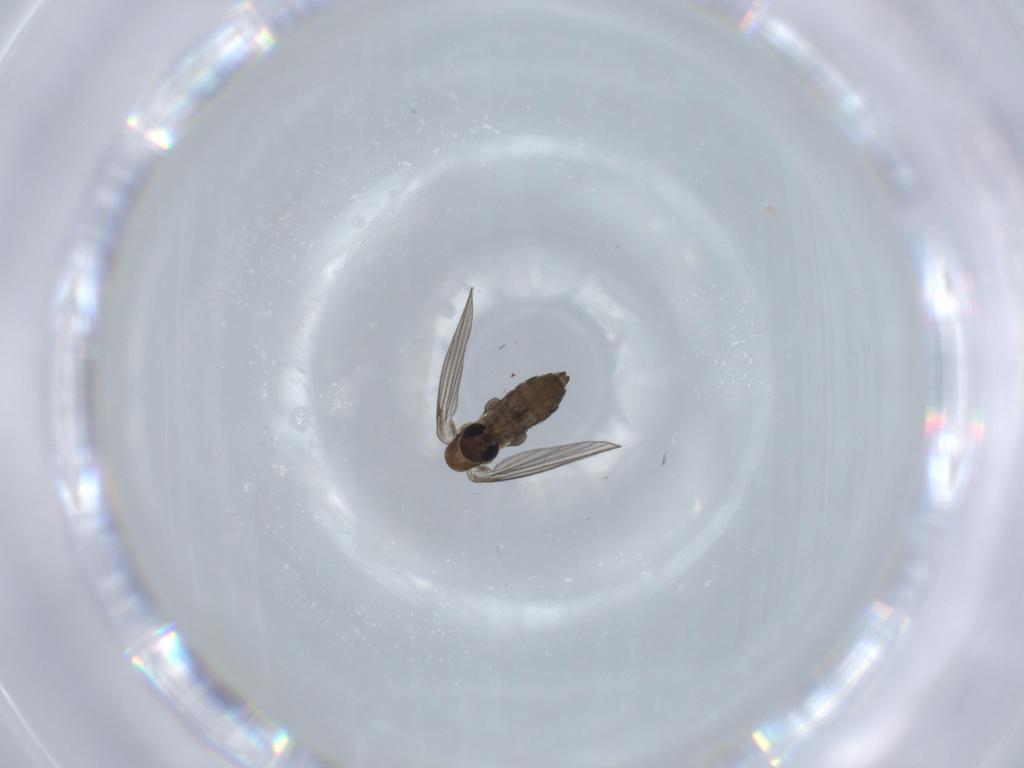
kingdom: Animalia
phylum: Arthropoda
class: Insecta
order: Diptera
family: Psychodidae
